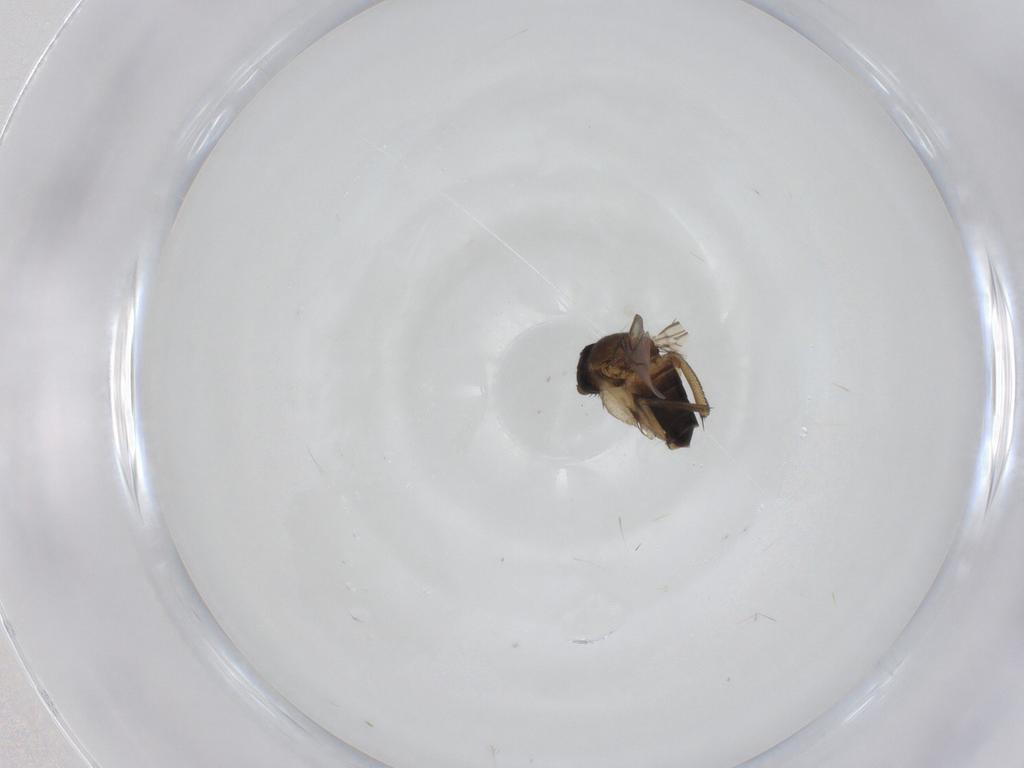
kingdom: Animalia
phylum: Arthropoda
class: Insecta
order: Diptera
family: Phoridae
